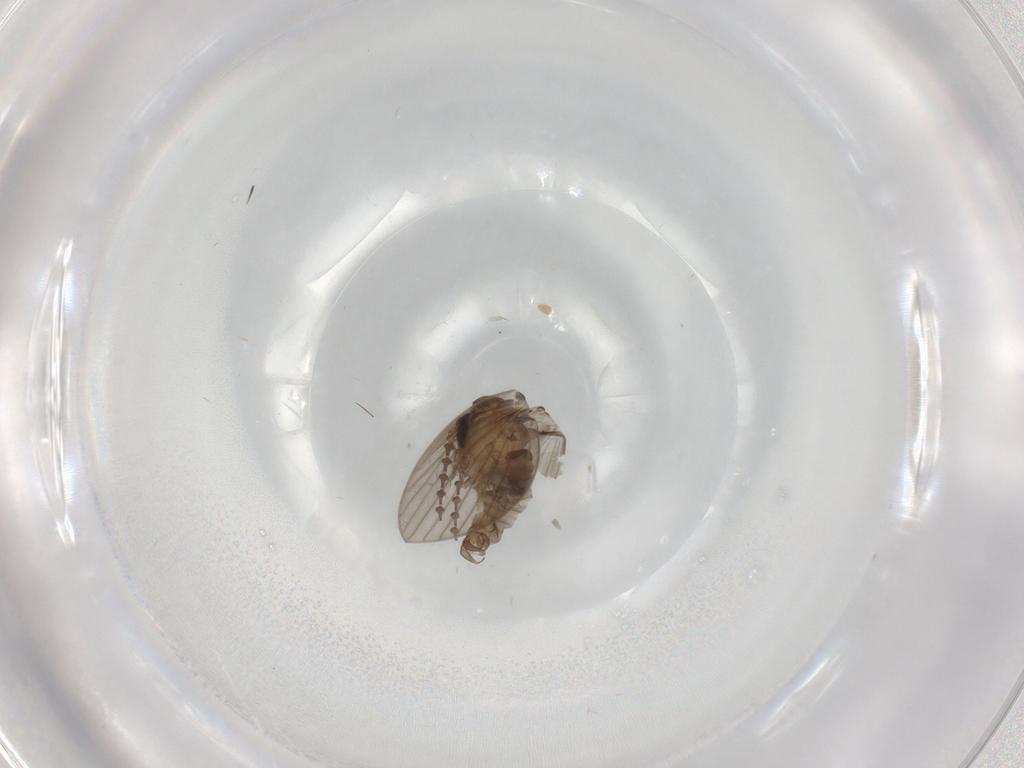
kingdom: Animalia
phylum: Arthropoda
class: Insecta
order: Diptera
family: Psychodidae
